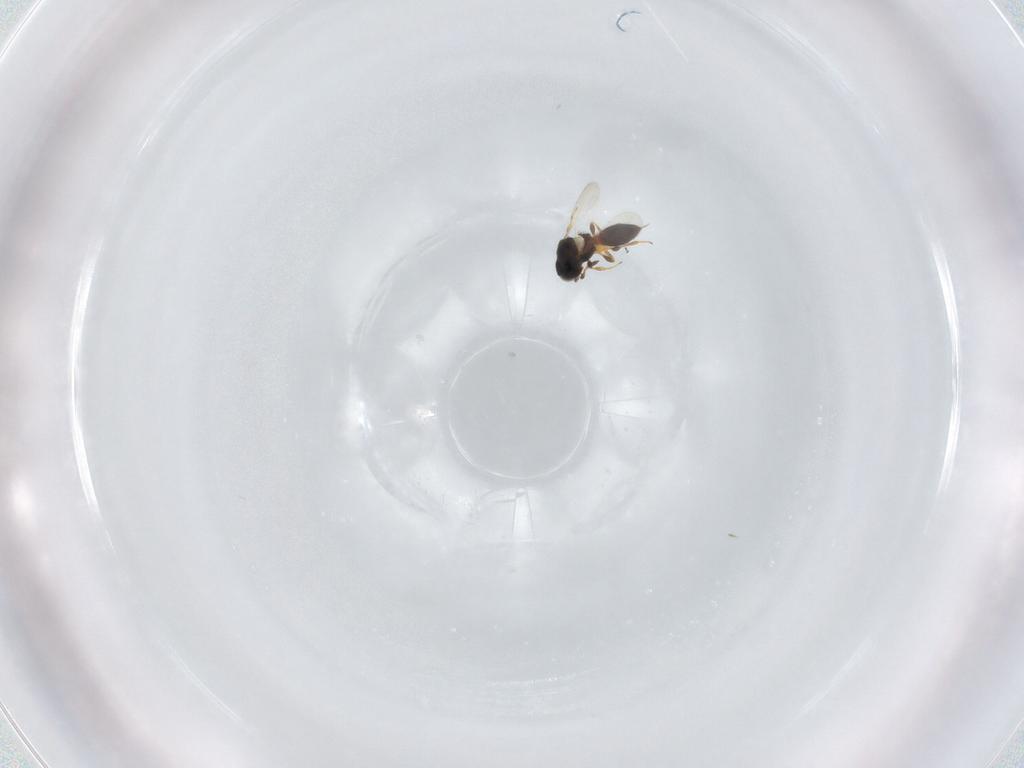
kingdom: Animalia
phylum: Arthropoda
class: Insecta
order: Hymenoptera
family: Platygastridae
